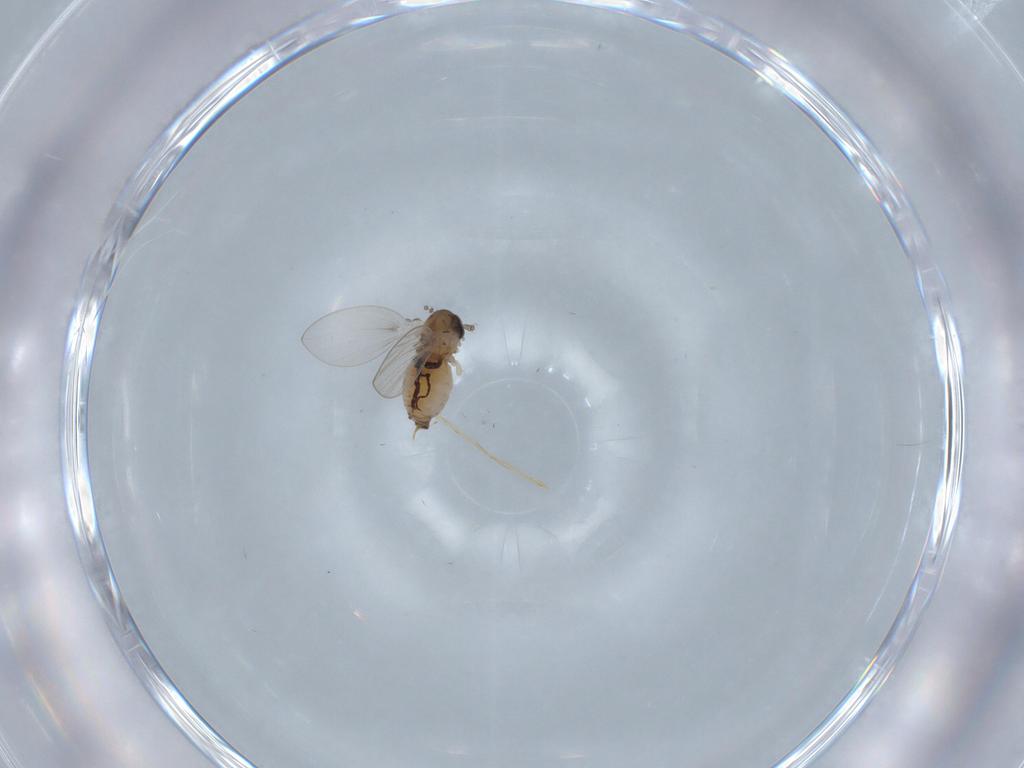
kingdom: Animalia
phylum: Arthropoda
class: Insecta
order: Diptera
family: Psychodidae
